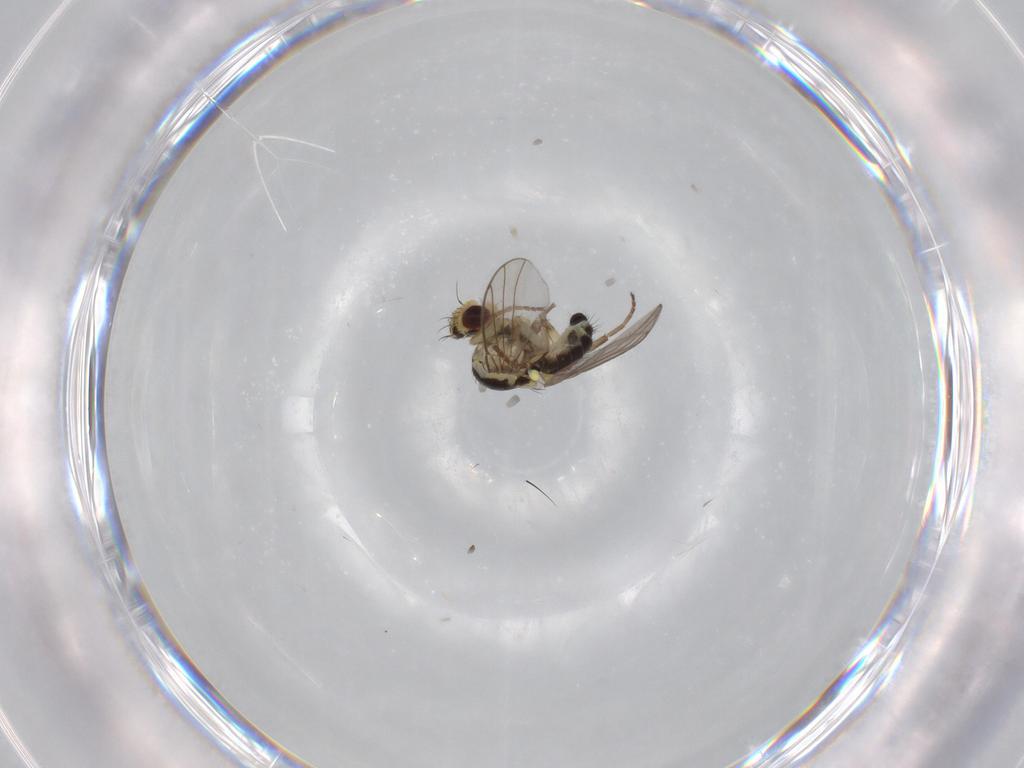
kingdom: Animalia
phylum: Arthropoda
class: Insecta
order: Diptera
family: Agromyzidae
